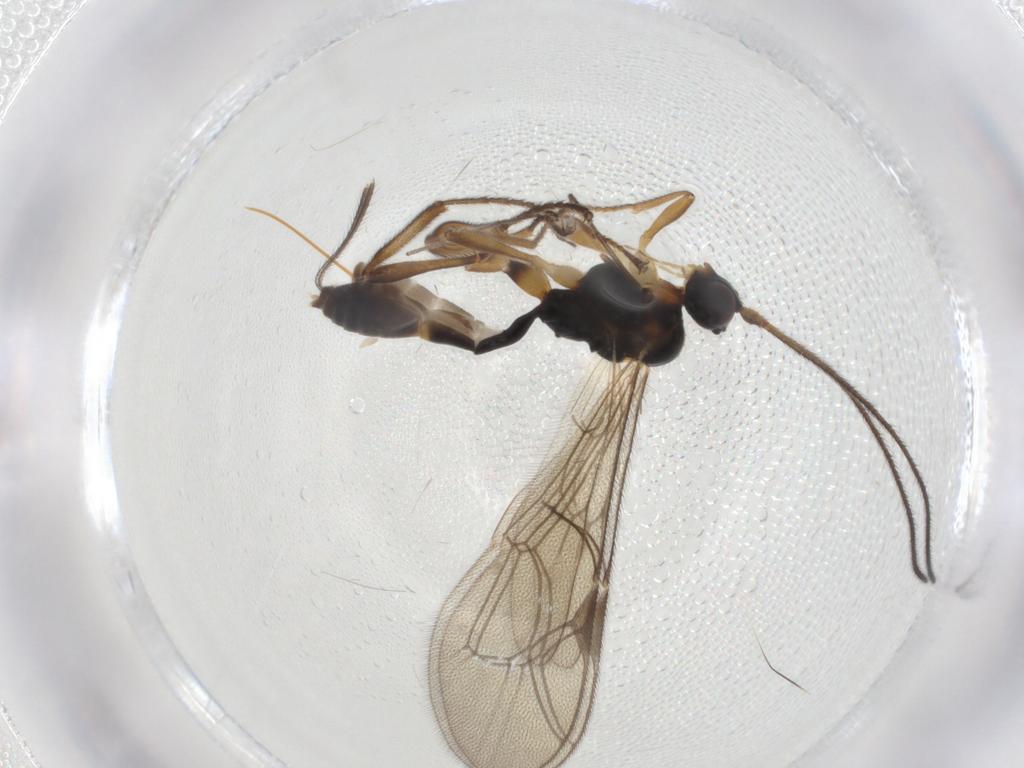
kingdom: Animalia
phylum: Arthropoda
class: Insecta
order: Hymenoptera
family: Ichneumonidae
